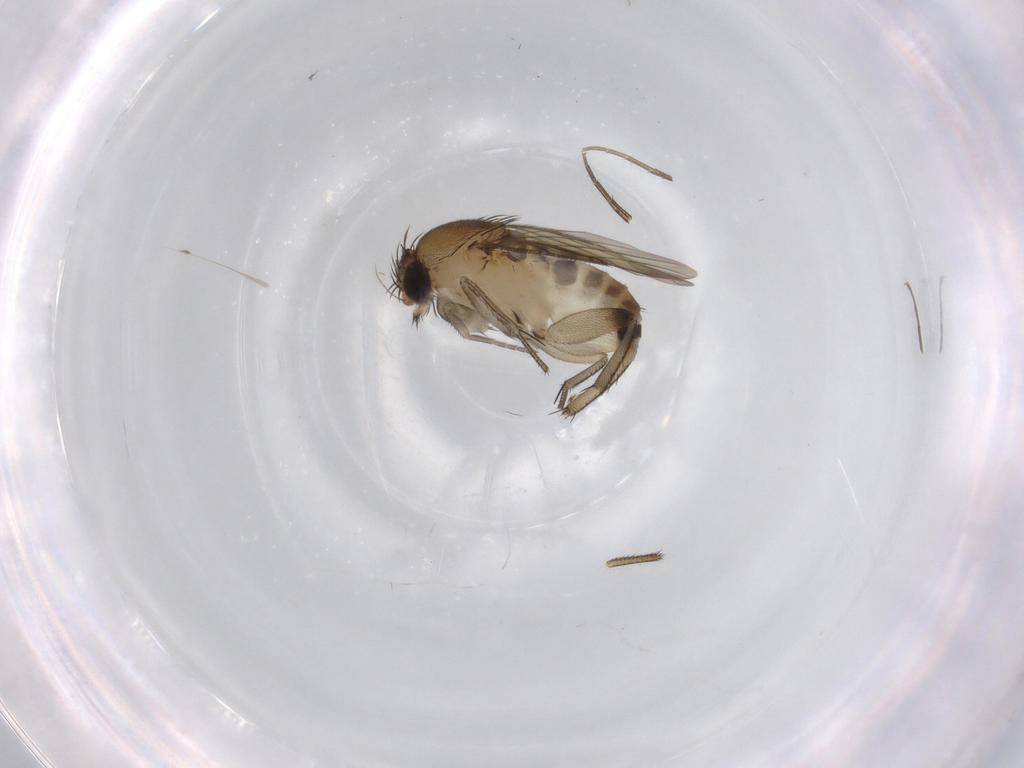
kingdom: Animalia
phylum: Arthropoda
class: Insecta
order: Diptera
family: Phoridae
